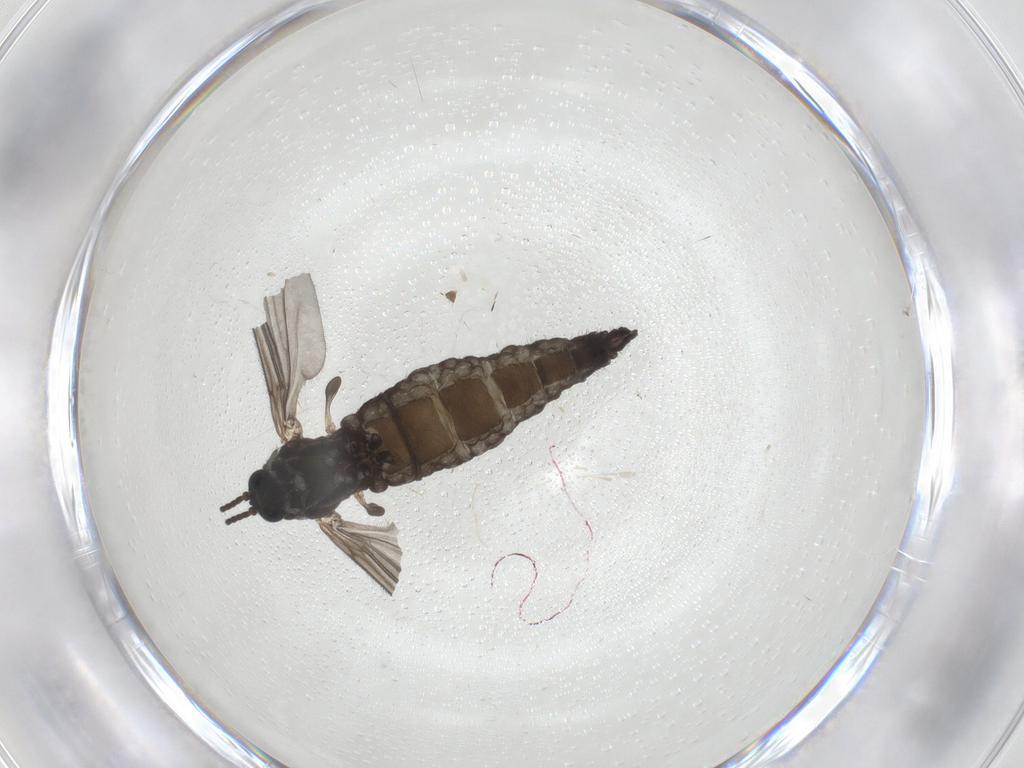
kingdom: Animalia
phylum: Arthropoda
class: Insecta
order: Diptera
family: Sciaridae
